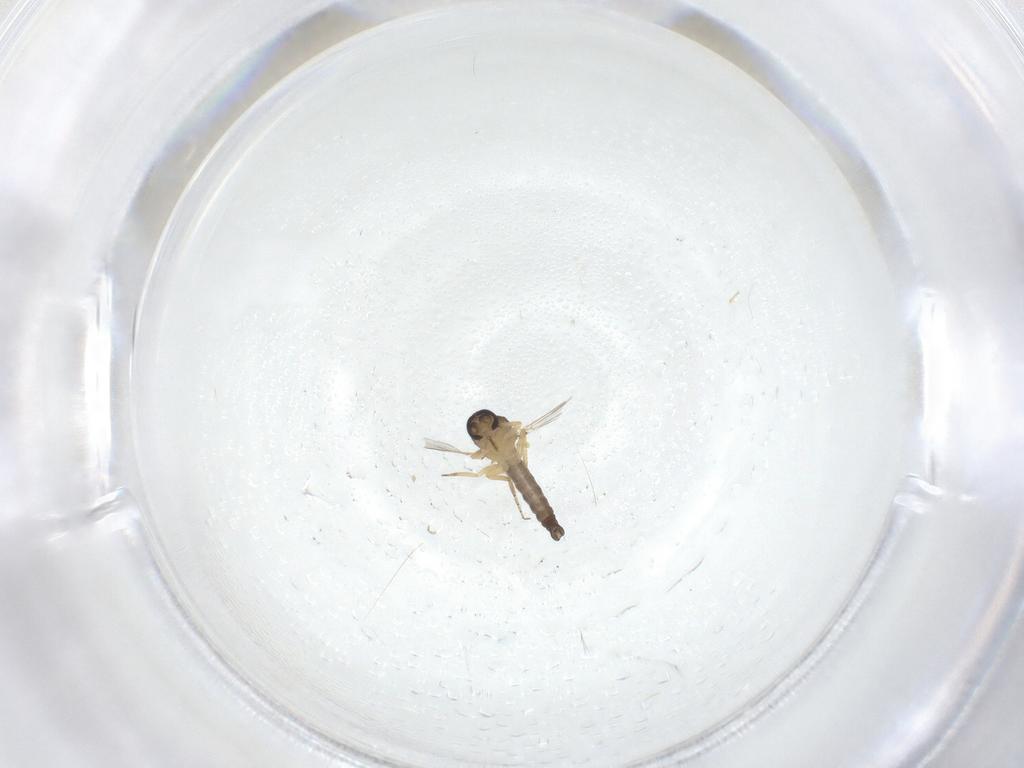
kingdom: Animalia
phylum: Arthropoda
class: Insecta
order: Diptera
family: Ceratopogonidae
